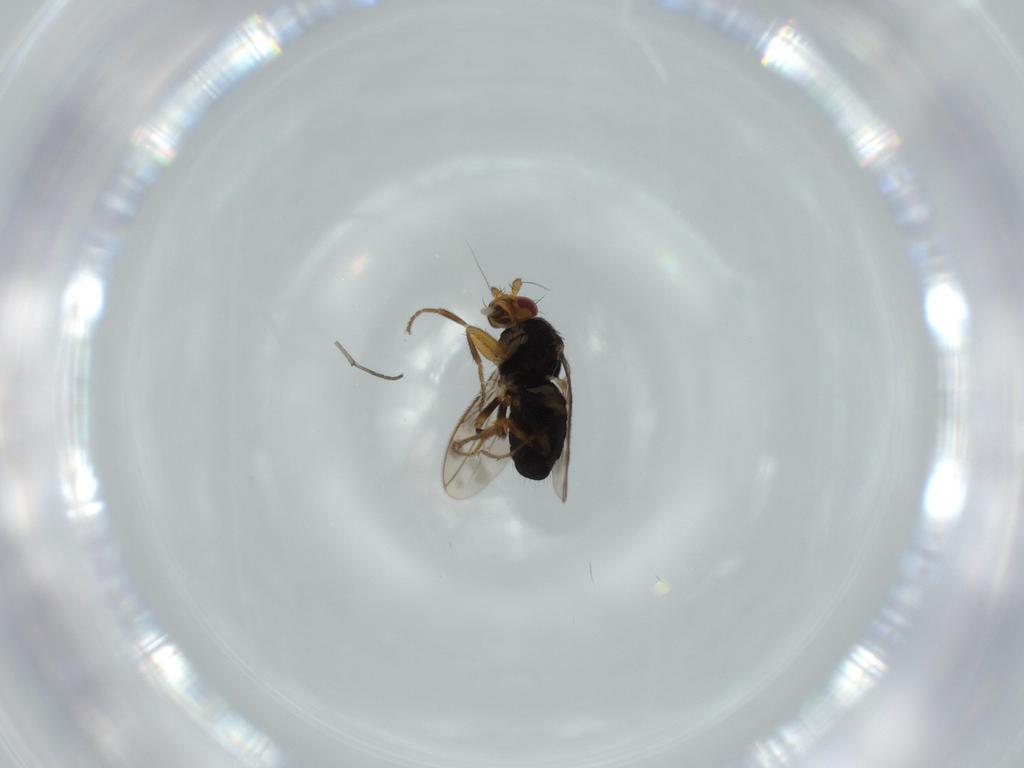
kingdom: Animalia
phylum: Arthropoda
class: Insecta
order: Diptera
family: Sphaeroceridae
